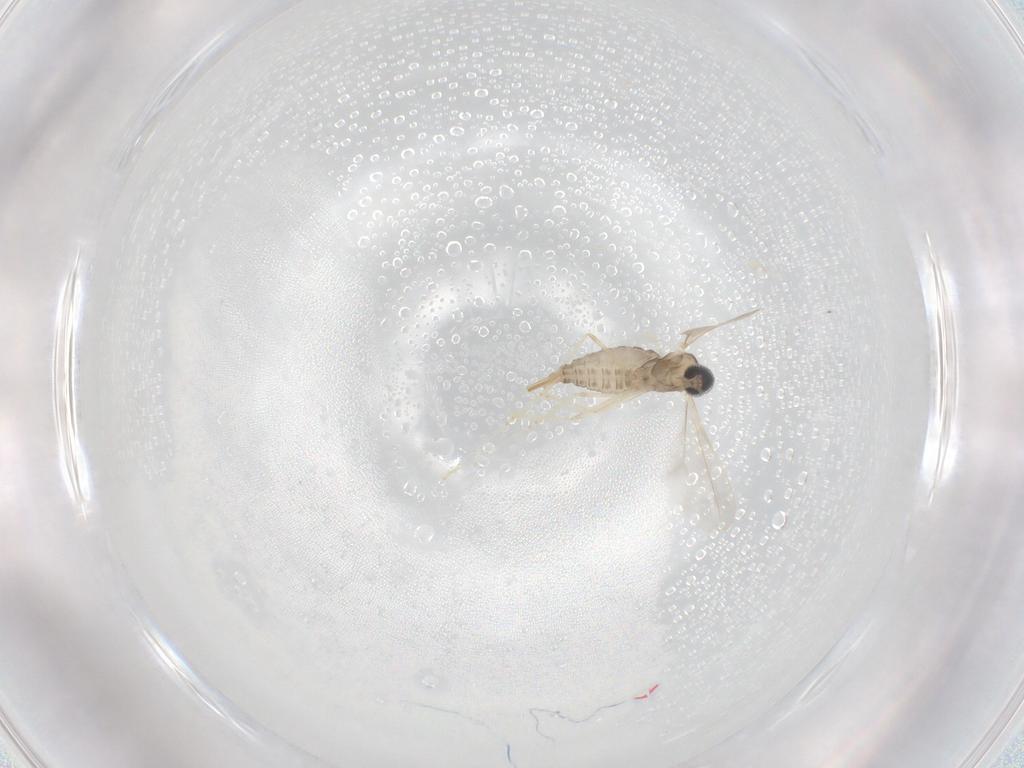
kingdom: Animalia
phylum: Arthropoda
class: Insecta
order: Diptera
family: Cecidomyiidae
